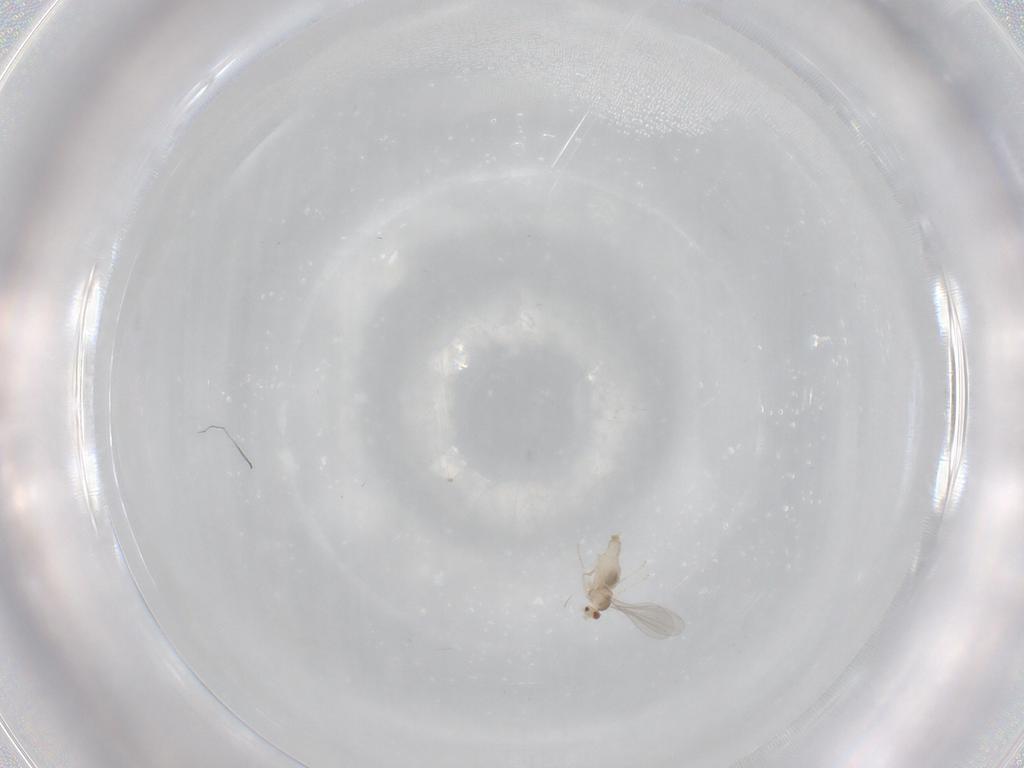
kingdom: Animalia
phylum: Arthropoda
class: Insecta
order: Diptera
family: Cecidomyiidae
